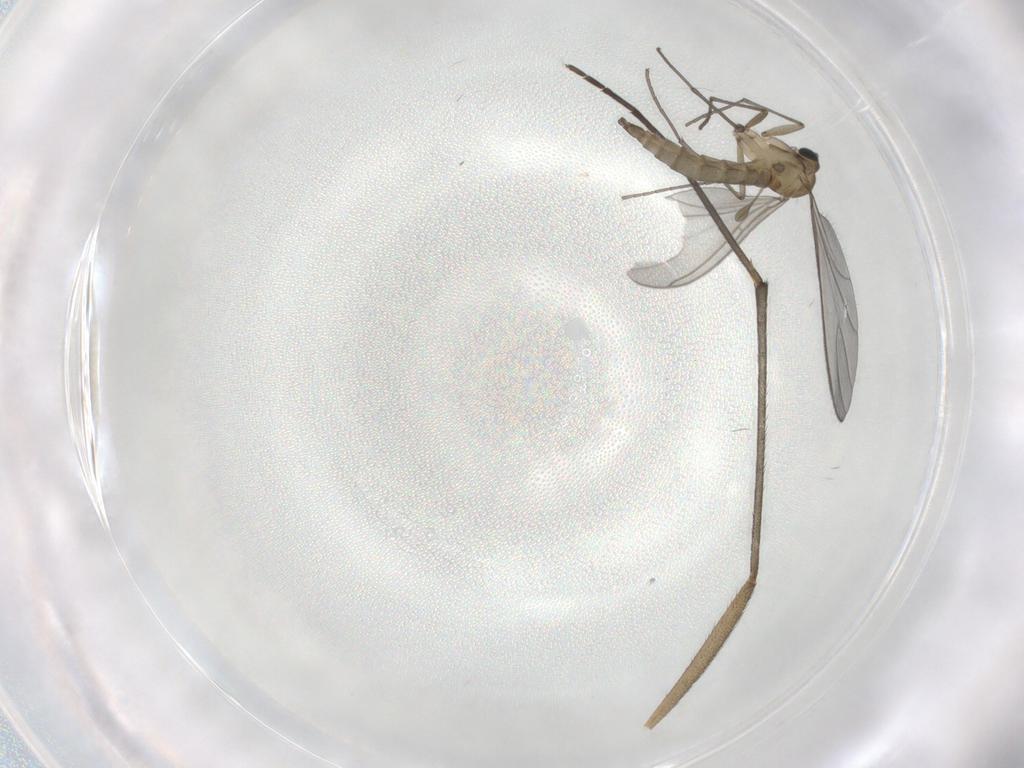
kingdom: Animalia
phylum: Arthropoda
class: Insecta
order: Diptera
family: Sciaridae
